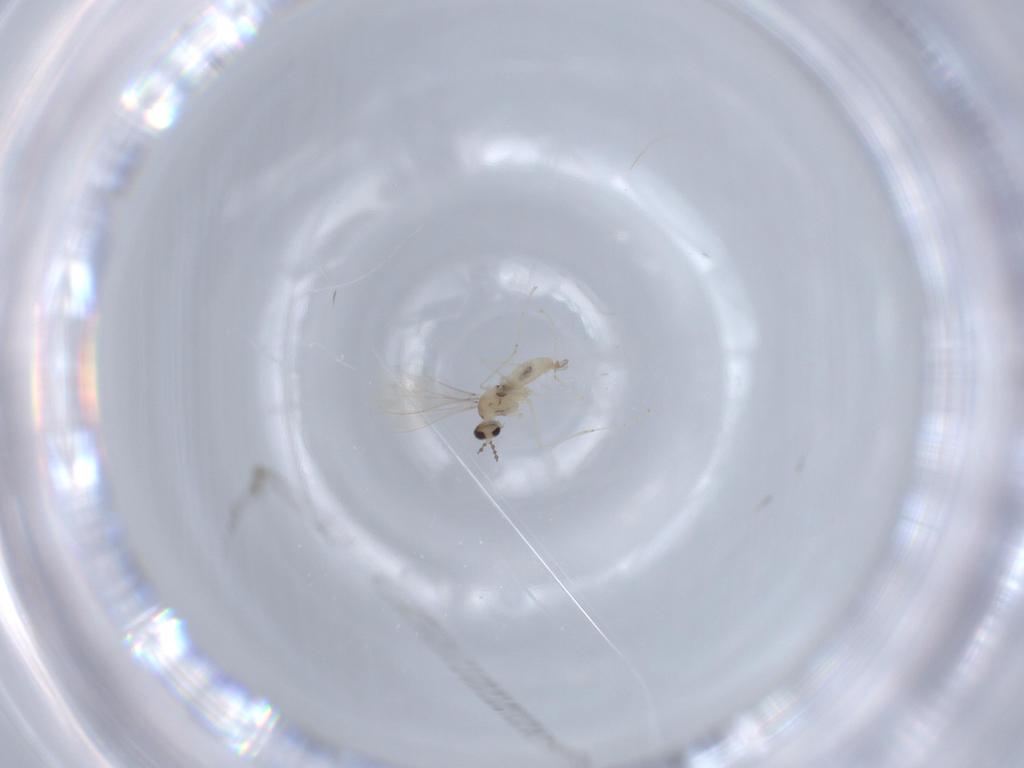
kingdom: Animalia
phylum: Arthropoda
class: Insecta
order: Diptera
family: Cecidomyiidae
